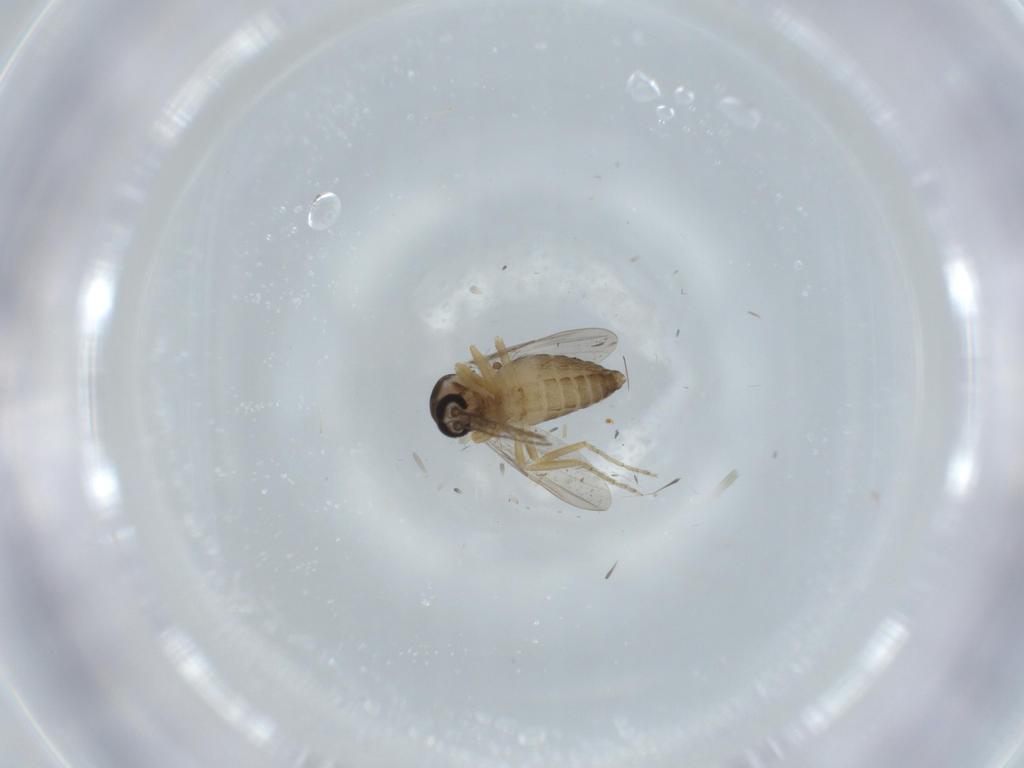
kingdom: Animalia
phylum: Arthropoda
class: Insecta
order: Diptera
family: Ceratopogonidae
